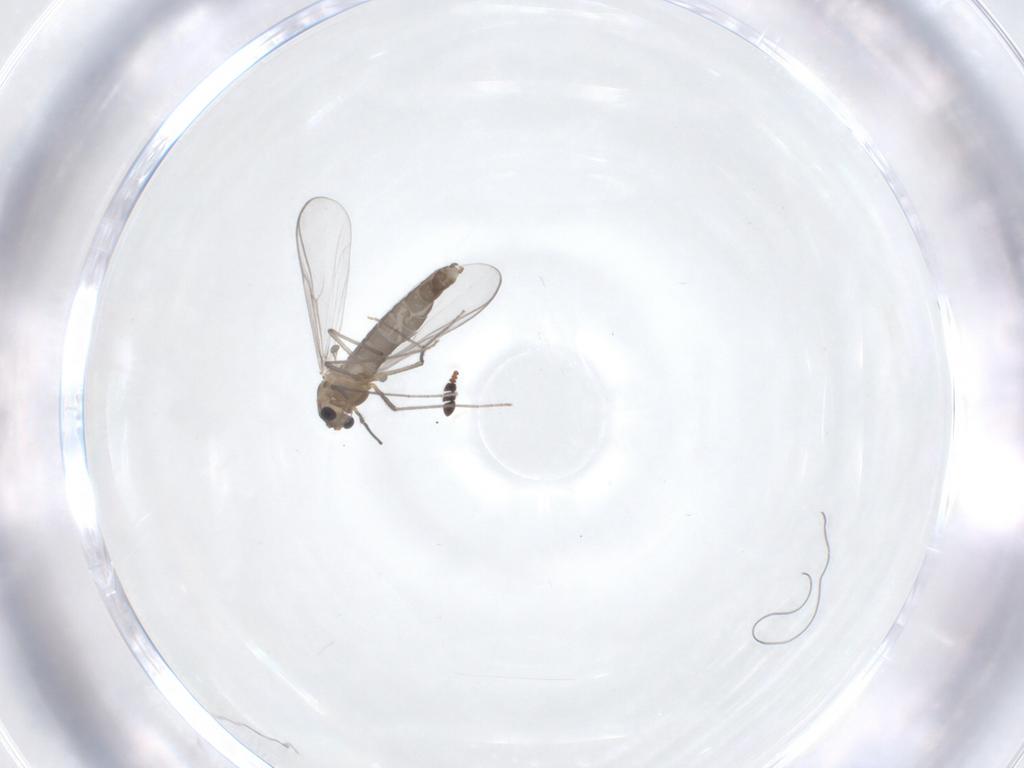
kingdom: Animalia
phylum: Arthropoda
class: Insecta
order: Diptera
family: Chironomidae
